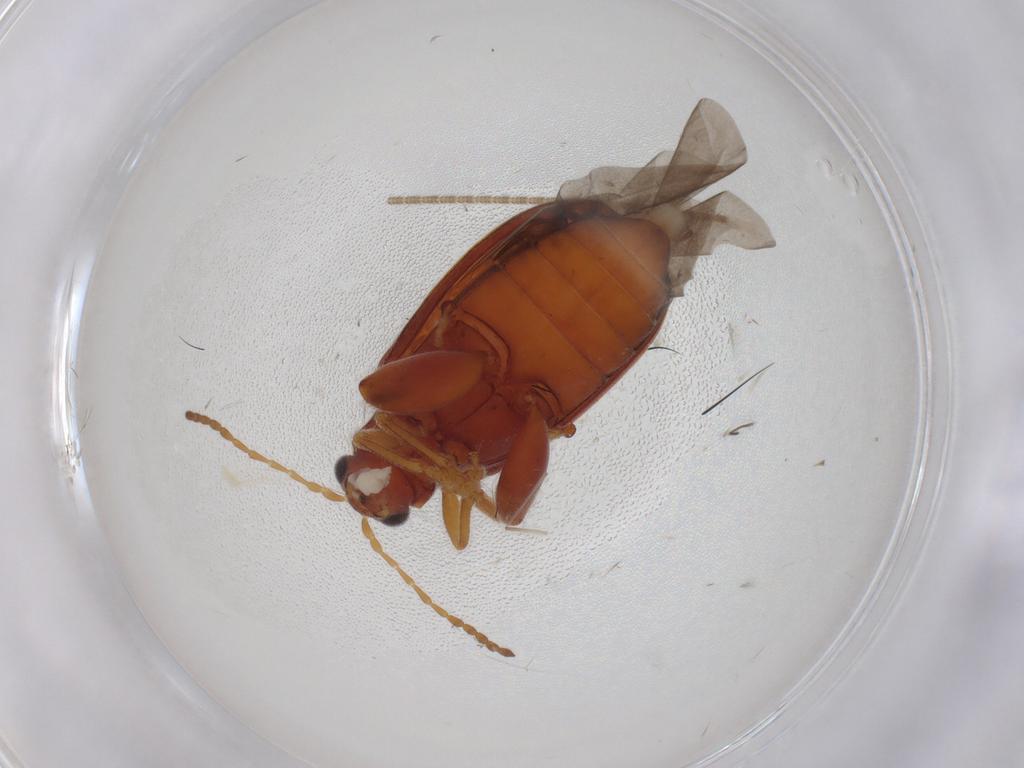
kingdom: Animalia
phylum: Arthropoda
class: Insecta
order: Coleoptera
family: Chrysomelidae
